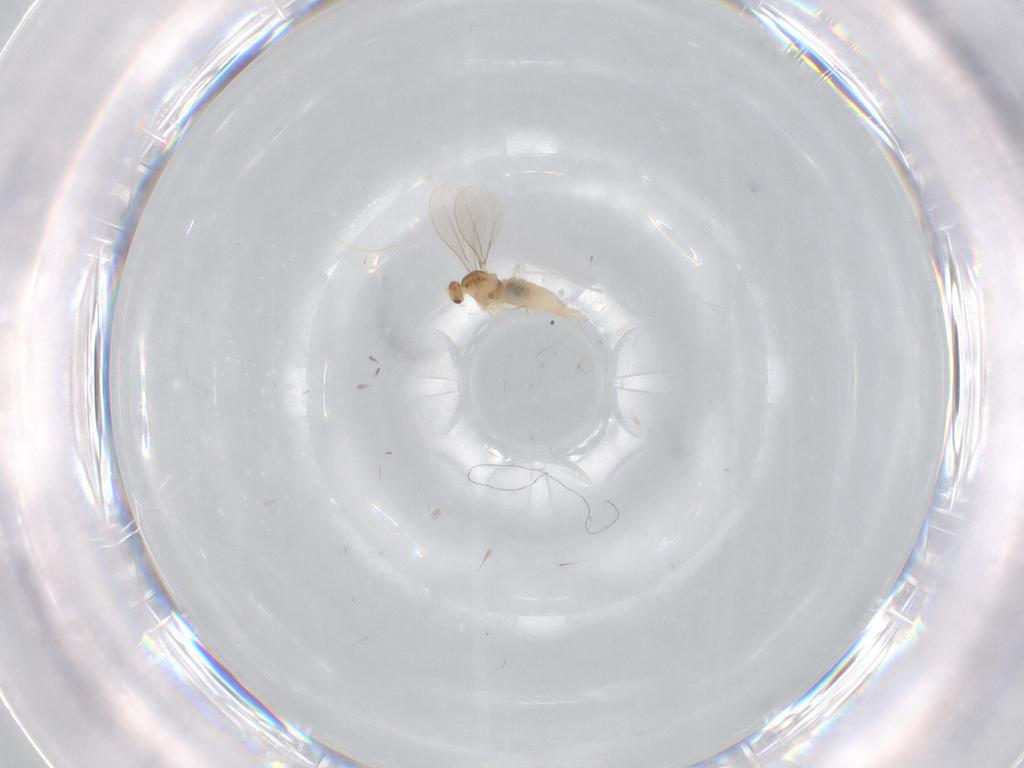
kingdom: Animalia
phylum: Arthropoda
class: Insecta
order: Diptera
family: Cecidomyiidae
